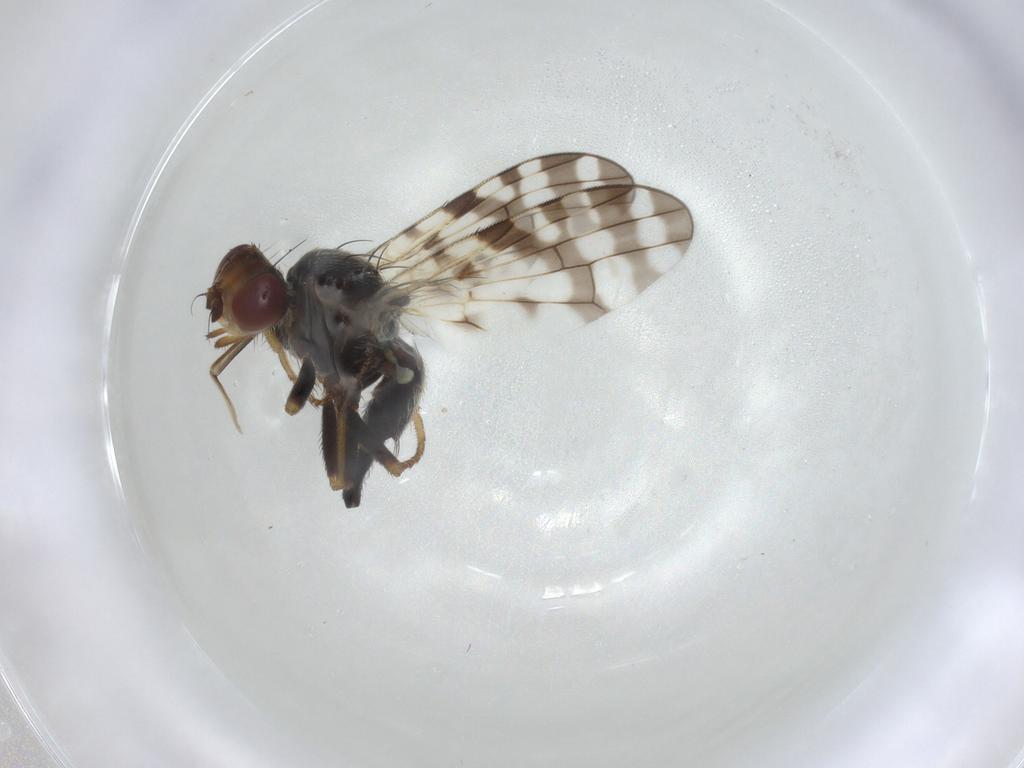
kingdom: Animalia
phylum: Arthropoda
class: Insecta
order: Diptera
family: Tephritidae
